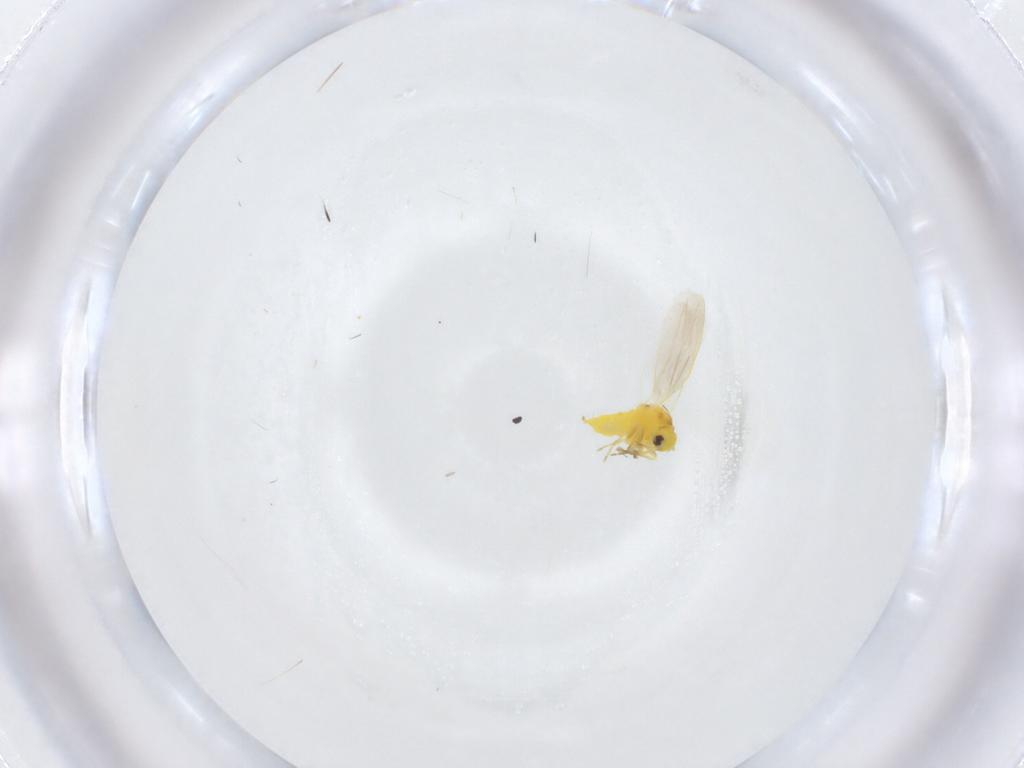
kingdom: Animalia
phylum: Arthropoda
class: Insecta
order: Hemiptera
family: Aleyrodidae
